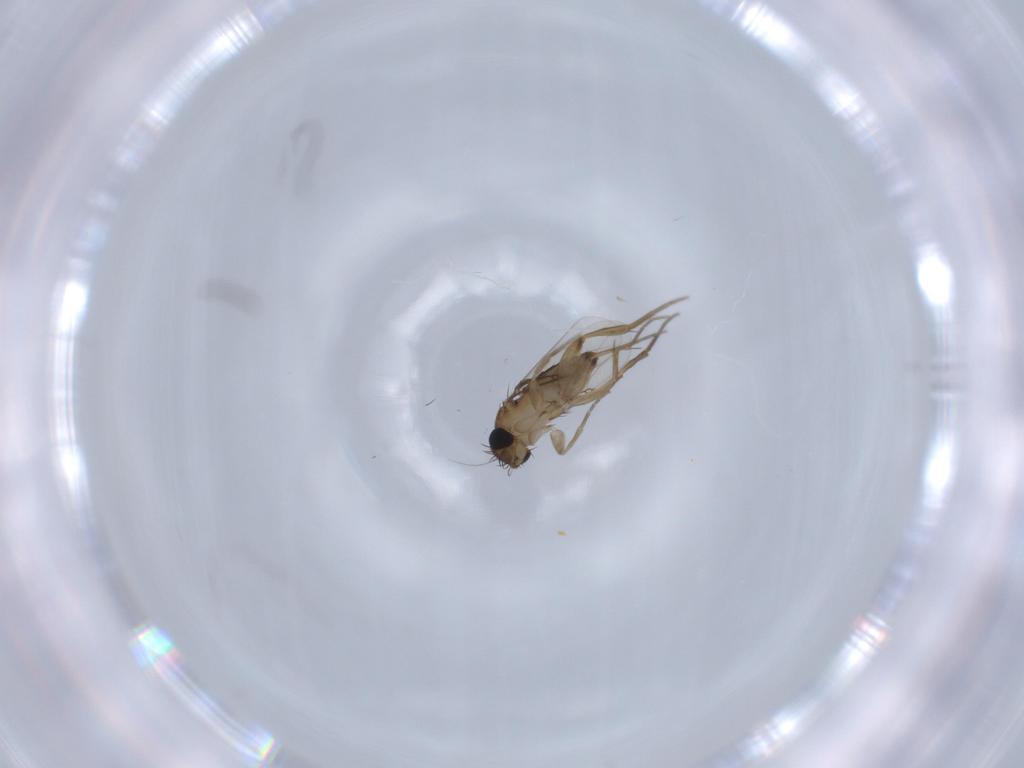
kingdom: Animalia
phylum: Arthropoda
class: Insecta
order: Diptera
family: Phoridae
